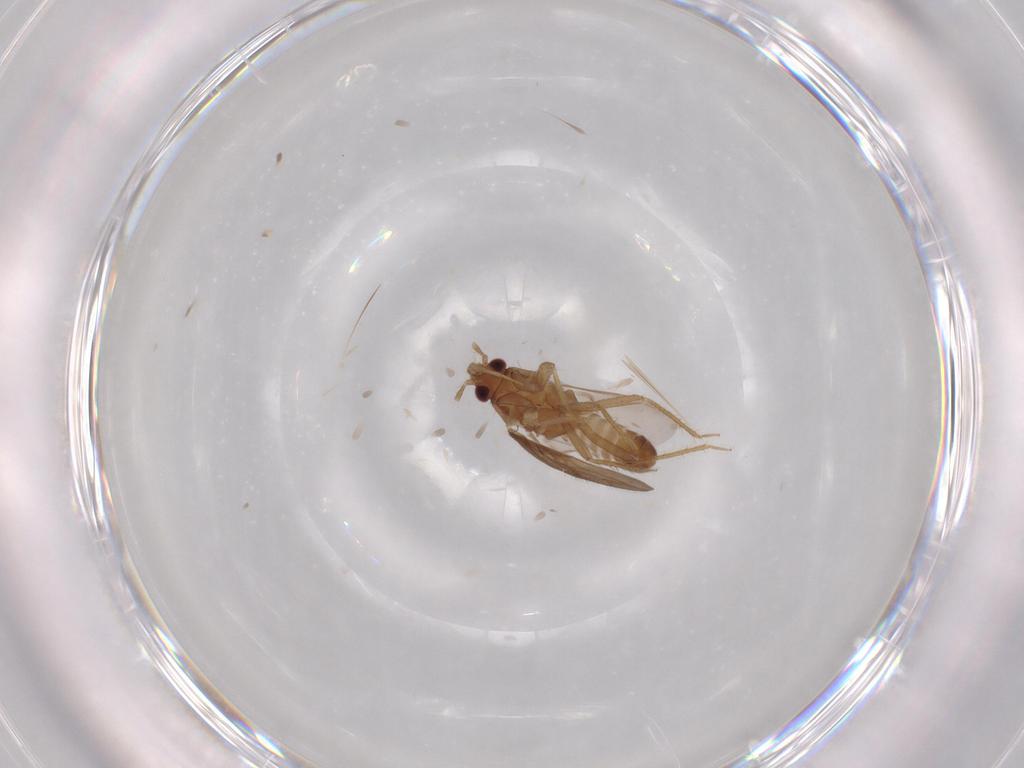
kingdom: Animalia
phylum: Arthropoda
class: Insecta
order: Hemiptera
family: Ceratocombidae
